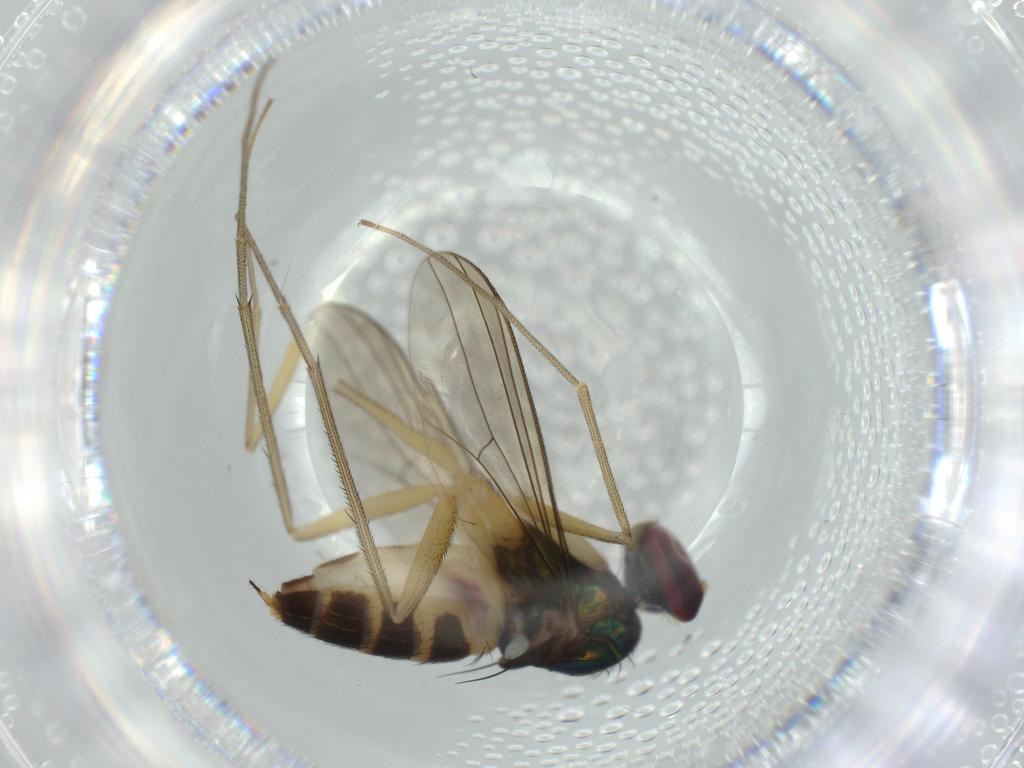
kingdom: Animalia
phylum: Arthropoda
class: Insecta
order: Diptera
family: Dolichopodidae
